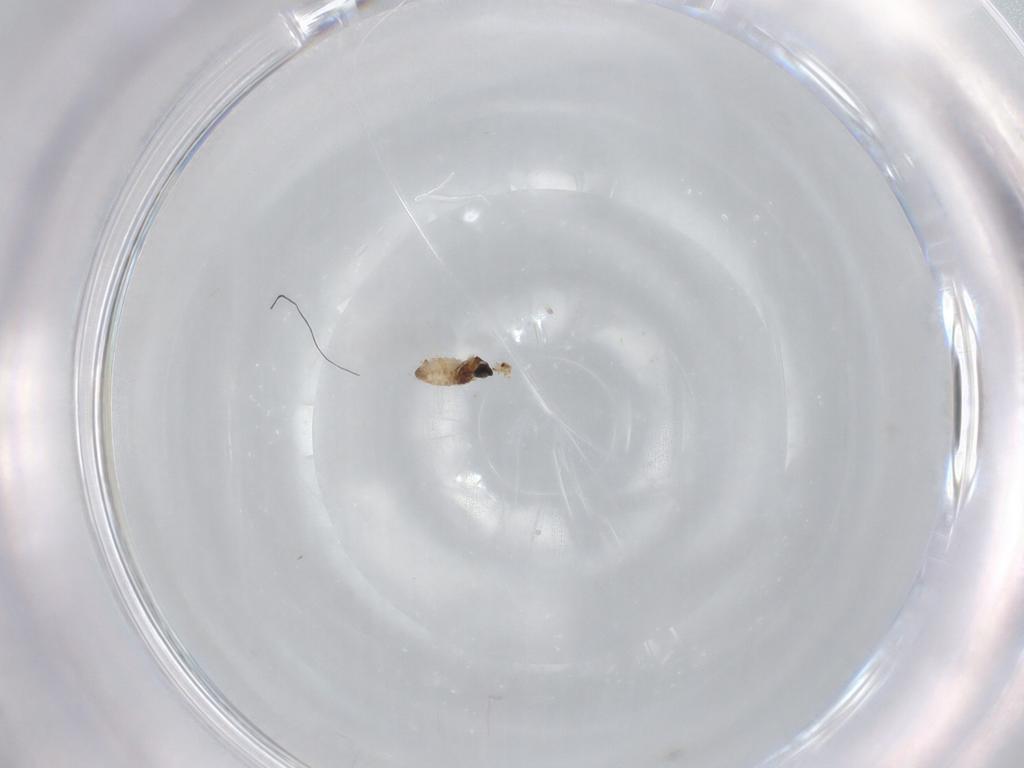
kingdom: Animalia
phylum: Arthropoda
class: Insecta
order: Diptera
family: Cecidomyiidae
